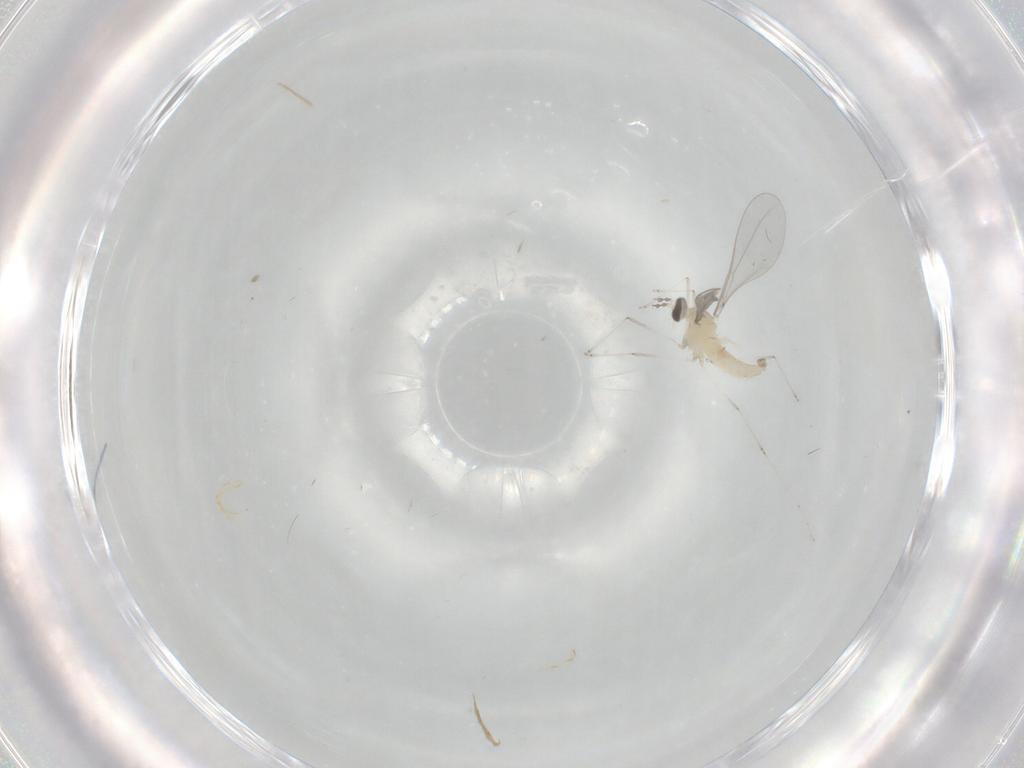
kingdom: Animalia
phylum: Arthropoda
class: Insecta
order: Diptera
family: Cecidomyiidae
